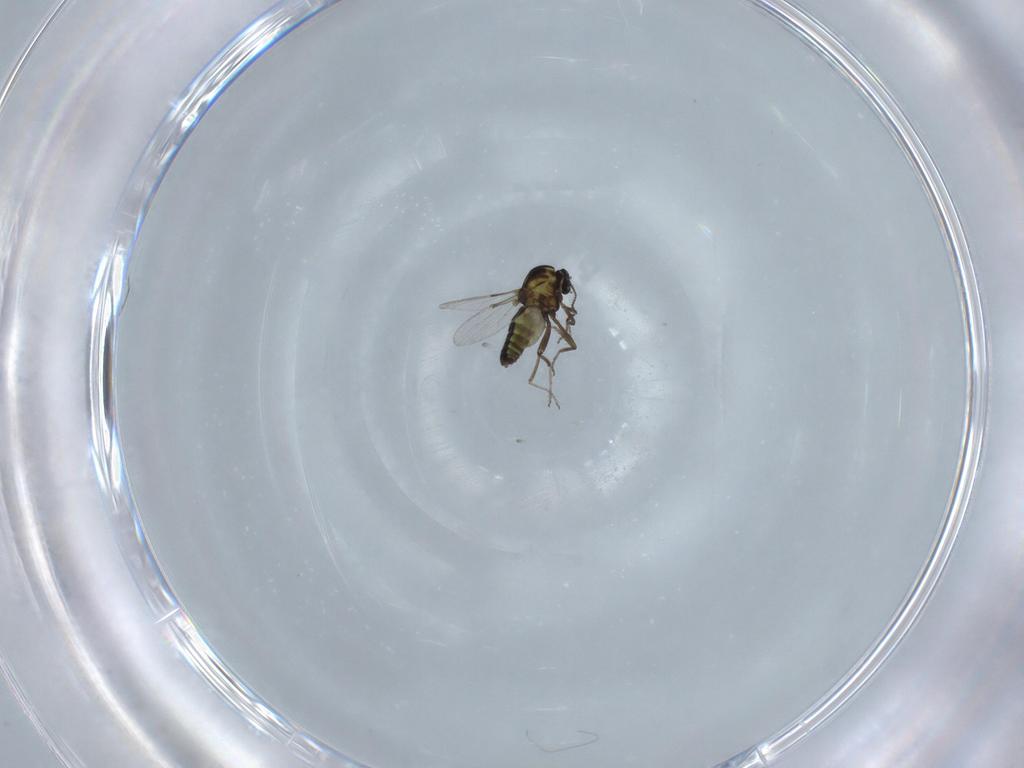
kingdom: Animalia
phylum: Arthropoda
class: Insecta
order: Diptera
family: Ceratopogonidae
